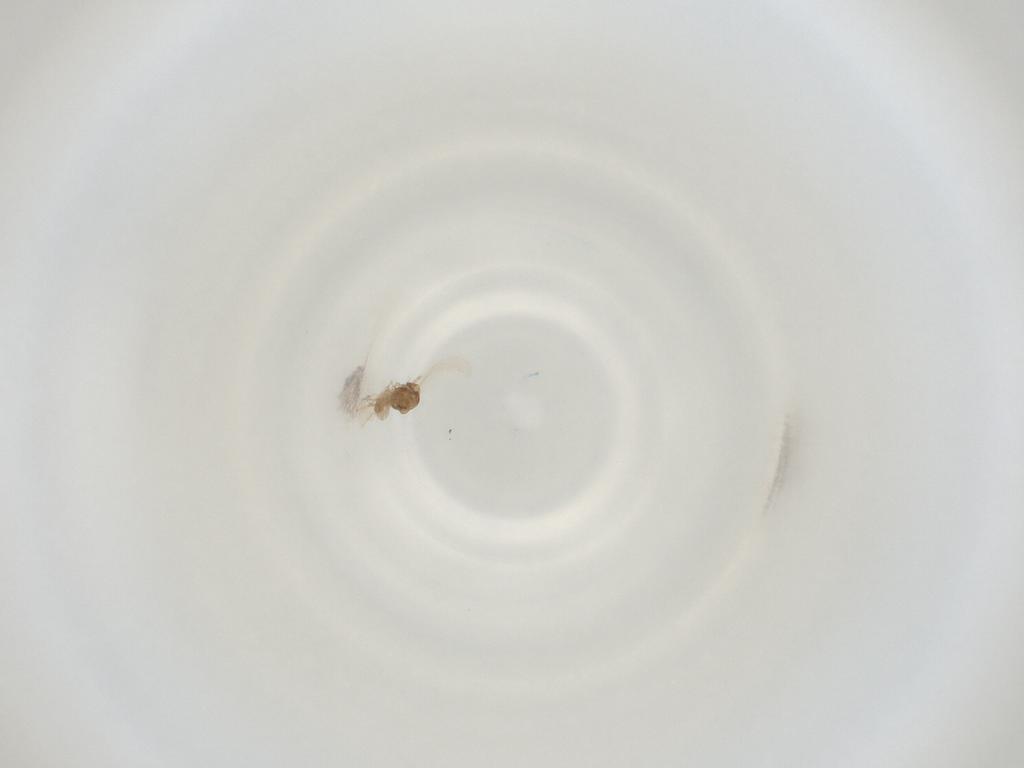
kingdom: Animalia
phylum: Arthropoda
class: Insecta
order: Diptera
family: Cecidomyiidae
